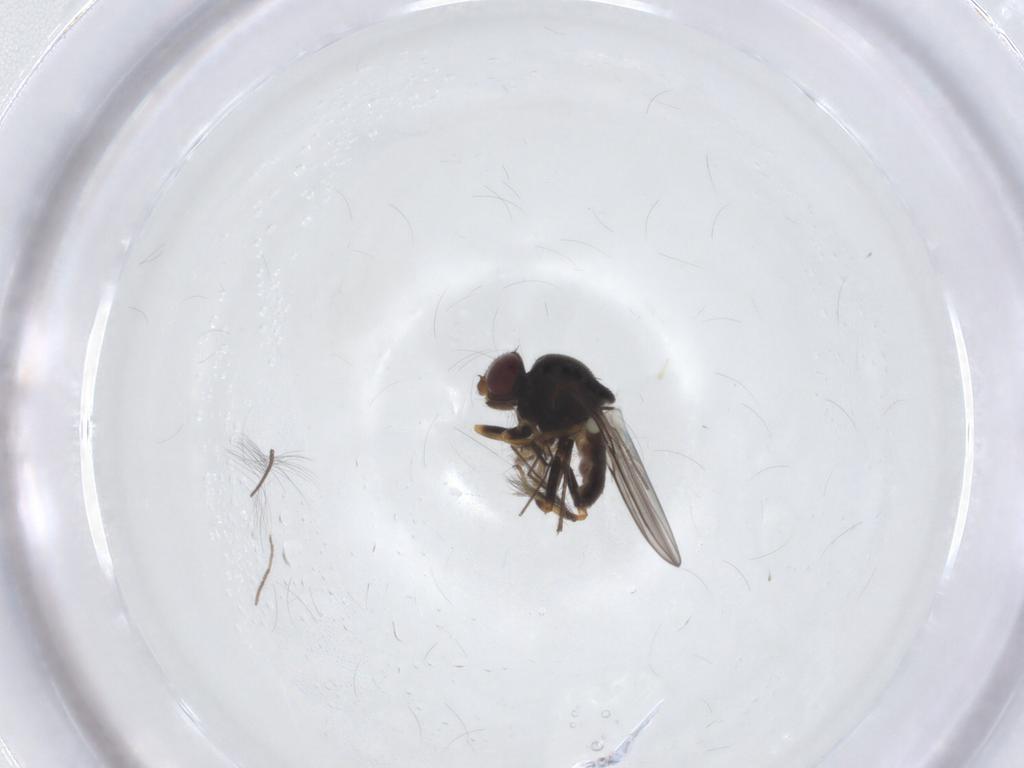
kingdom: Animalia
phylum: Arthropoda
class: Insecta
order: Diptera
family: Chloropidae
